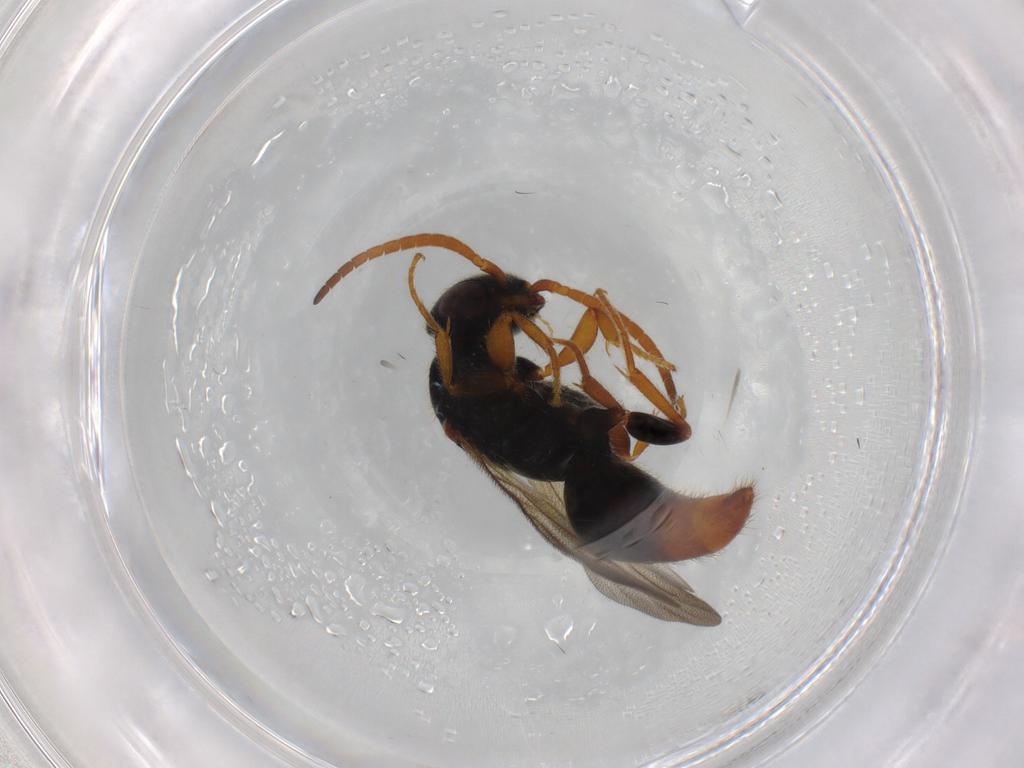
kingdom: Animalia
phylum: Arthropoda
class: Insecta
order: Hymenoptera
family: Bethylidae
